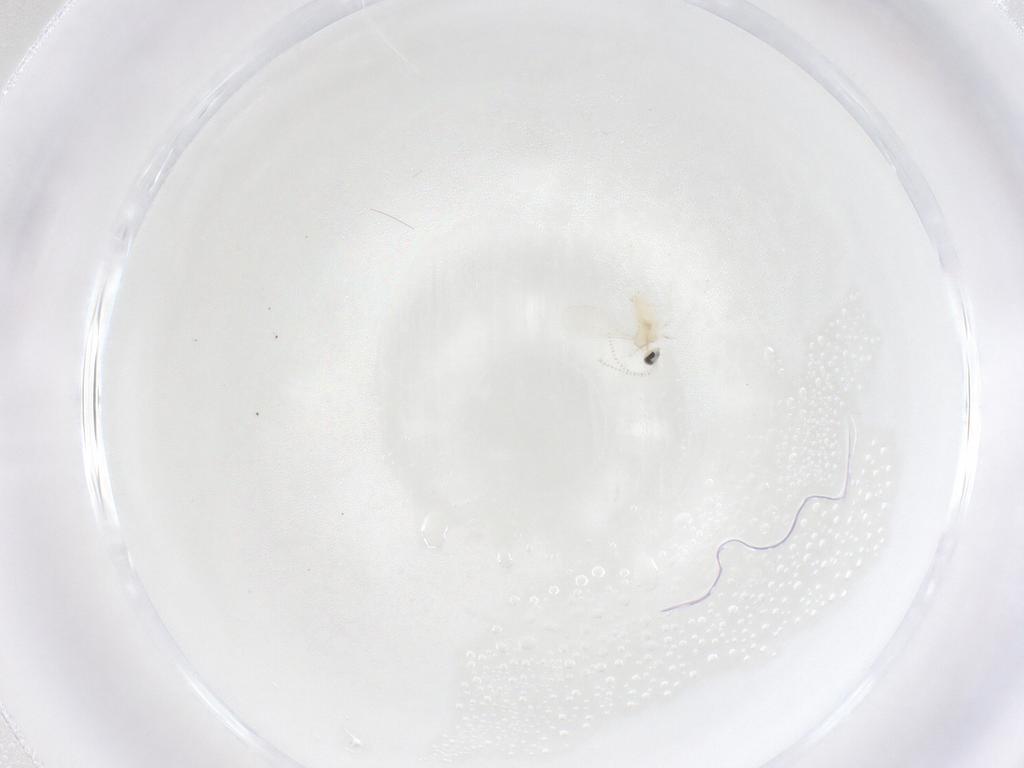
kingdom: Animalia
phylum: Arthropoda
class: Insecta
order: Diptera
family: Cecidomyiidae
